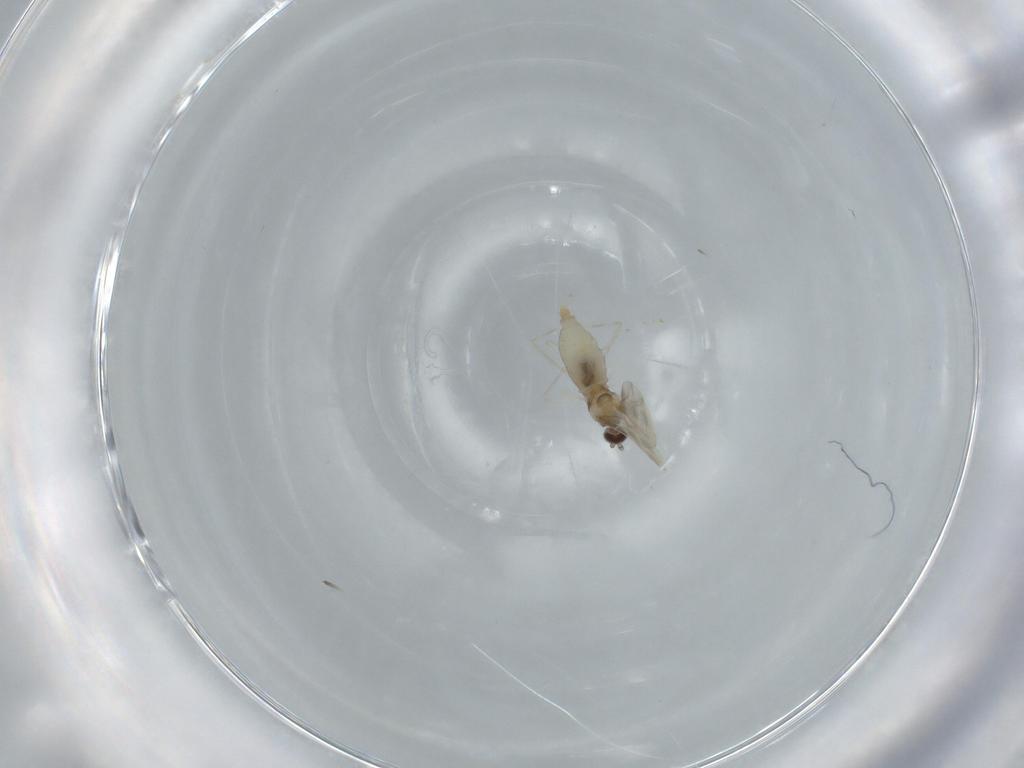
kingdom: Animalia
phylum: Arthropoda
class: Insecta
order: Diptera
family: Sciaridae
